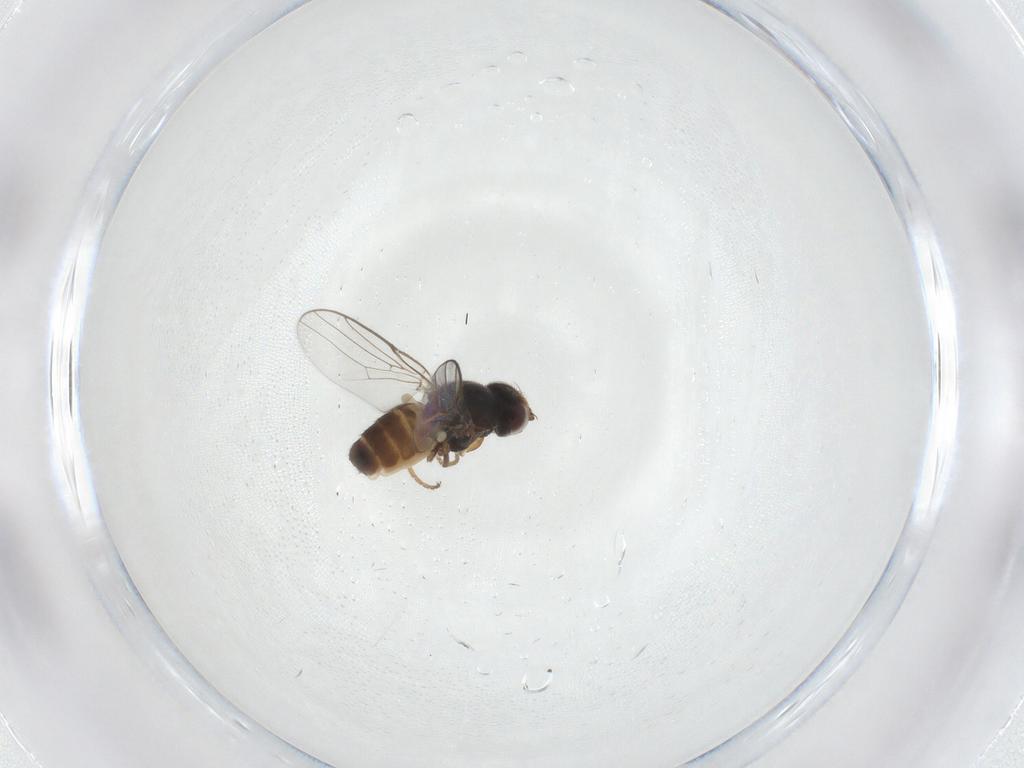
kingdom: Animalia
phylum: Arthropoda
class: Insecta
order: Diptera
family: Chloropidae
